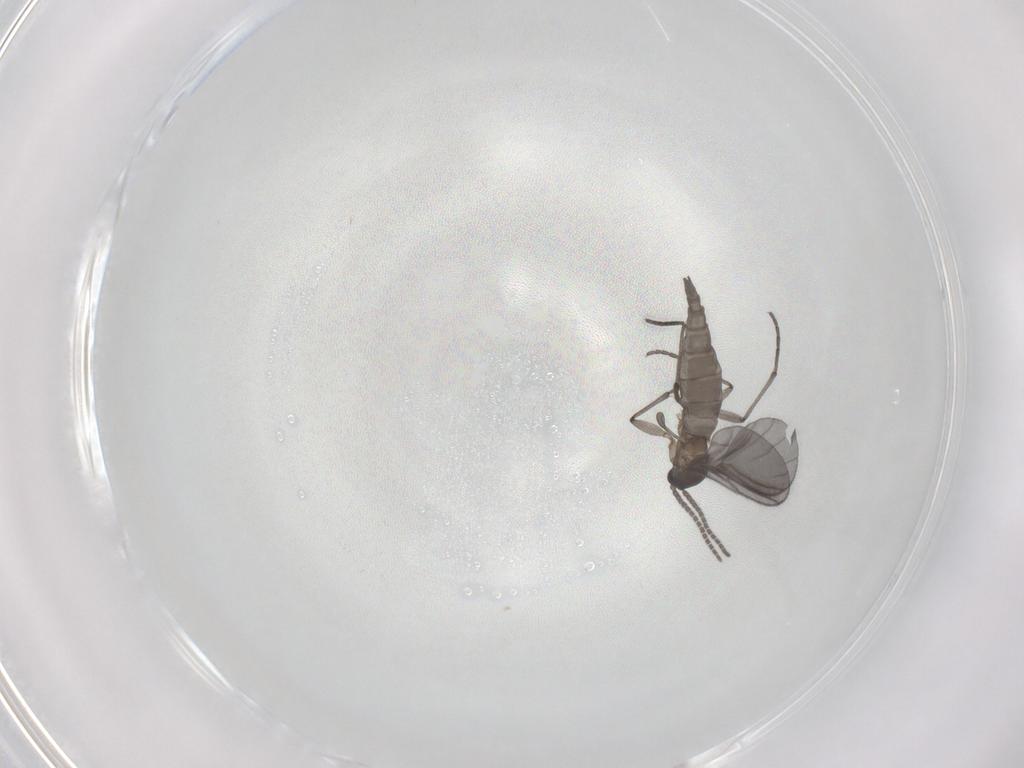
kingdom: Animalia
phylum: Arthropoda
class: Insecta
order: Diptera
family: Sciaridae
